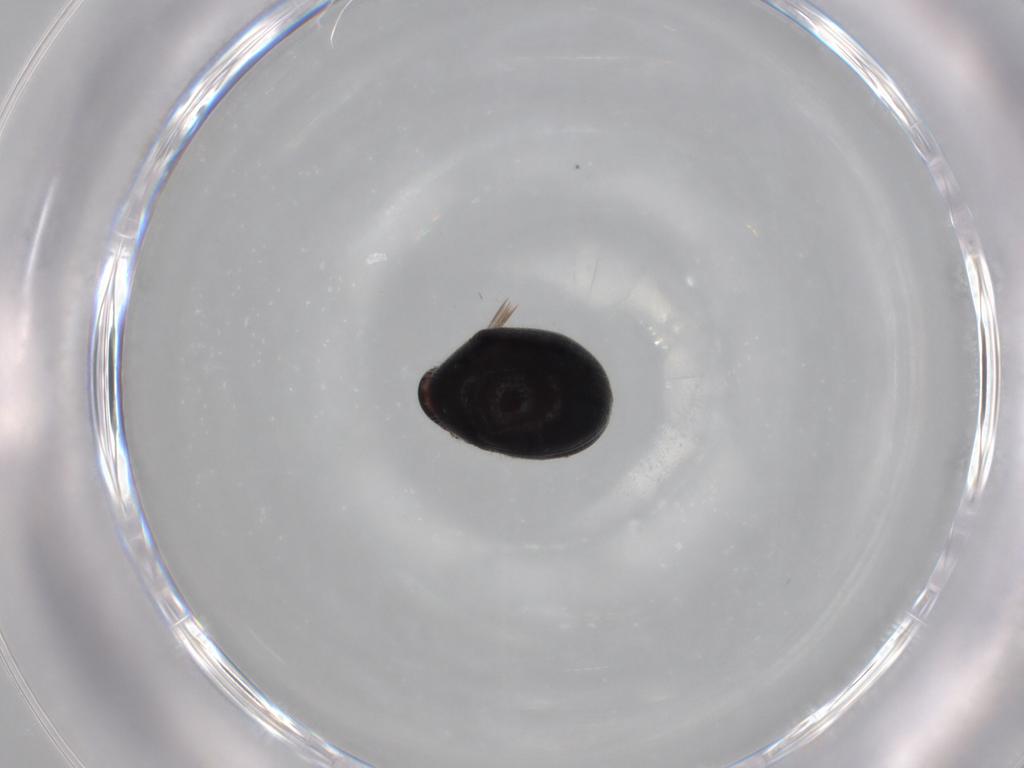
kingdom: Animalia
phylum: Arthropoda
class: Insecta
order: Coleoptera
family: Ptinidae
